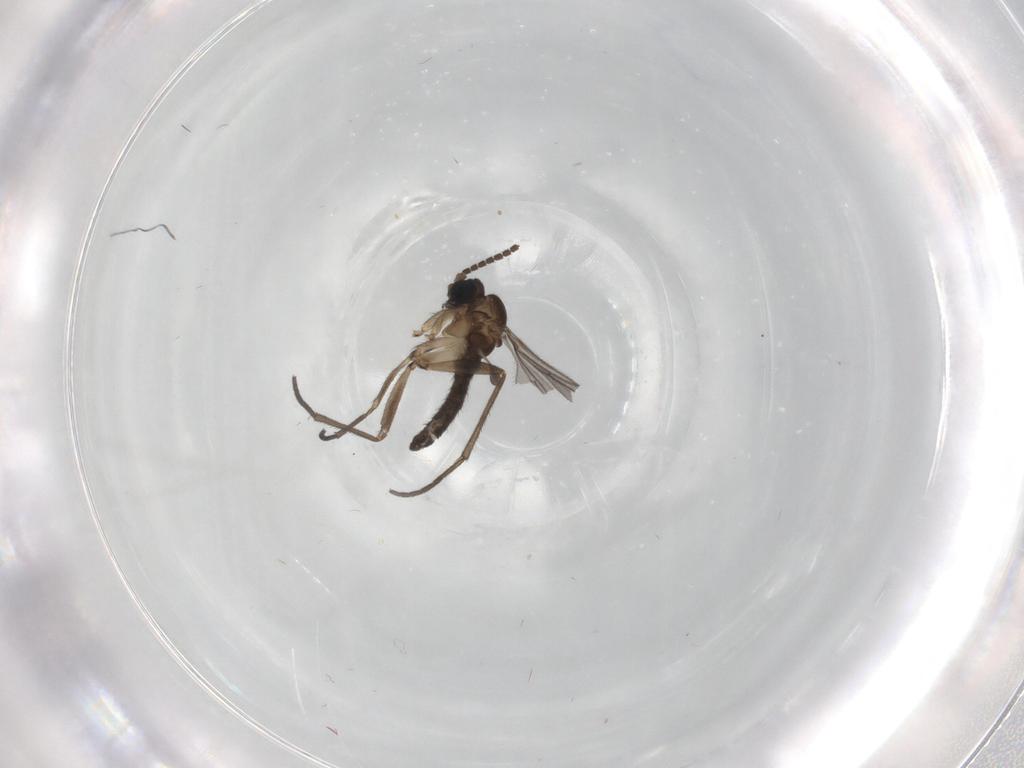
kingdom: Animalia
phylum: Arthropoda
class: Insecta
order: Diptera
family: Sciaridae
